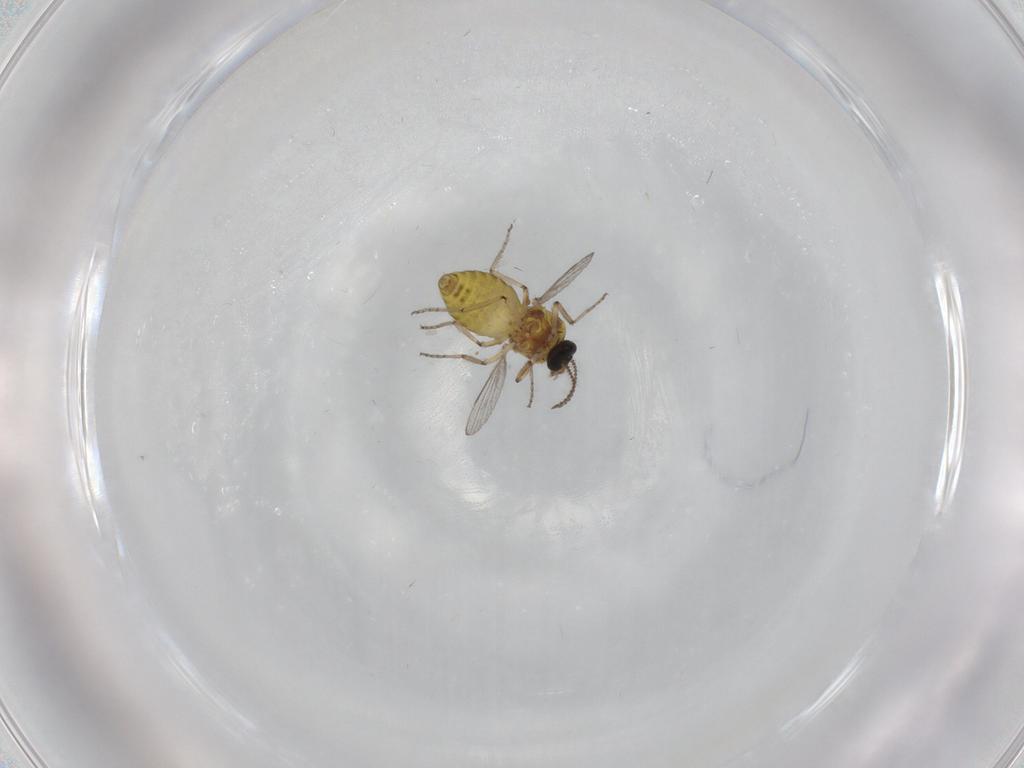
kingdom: Animalia
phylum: Arthropoda
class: Insecta
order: Diptera
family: Ceratopogonidae
